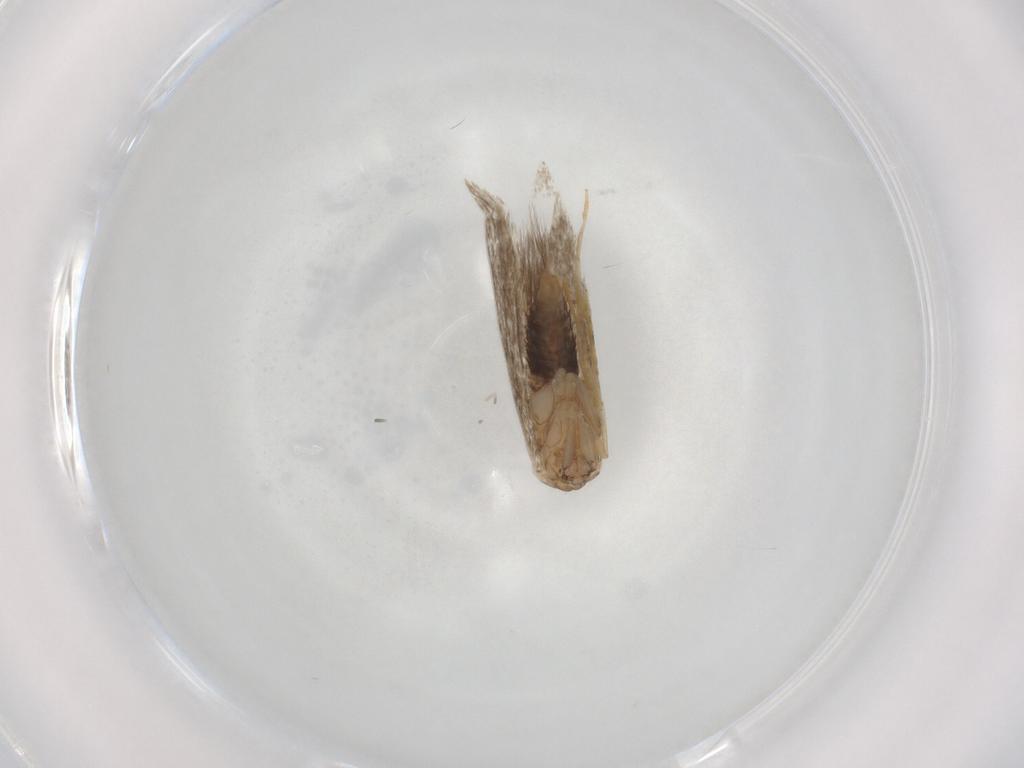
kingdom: Animalia
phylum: Arthropoda
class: Insecta
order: Lepidoptera
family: Tineidae
